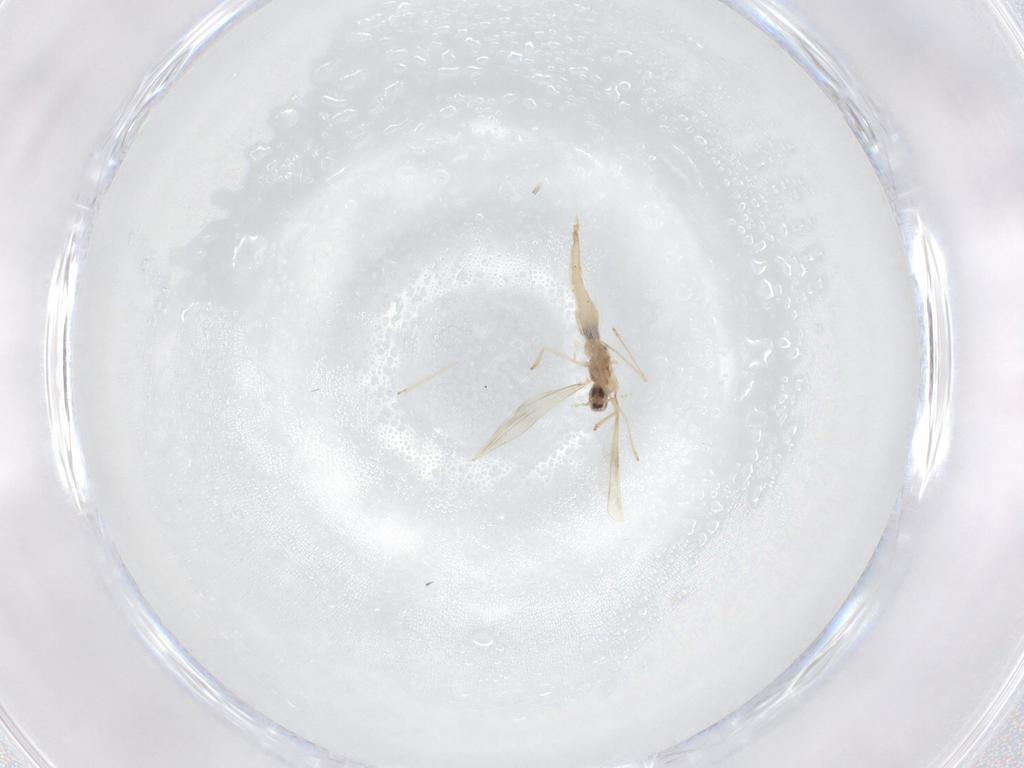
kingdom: Animalia
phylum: Arthropoda
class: Insecta
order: Diptera
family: Cecidomyiidae
